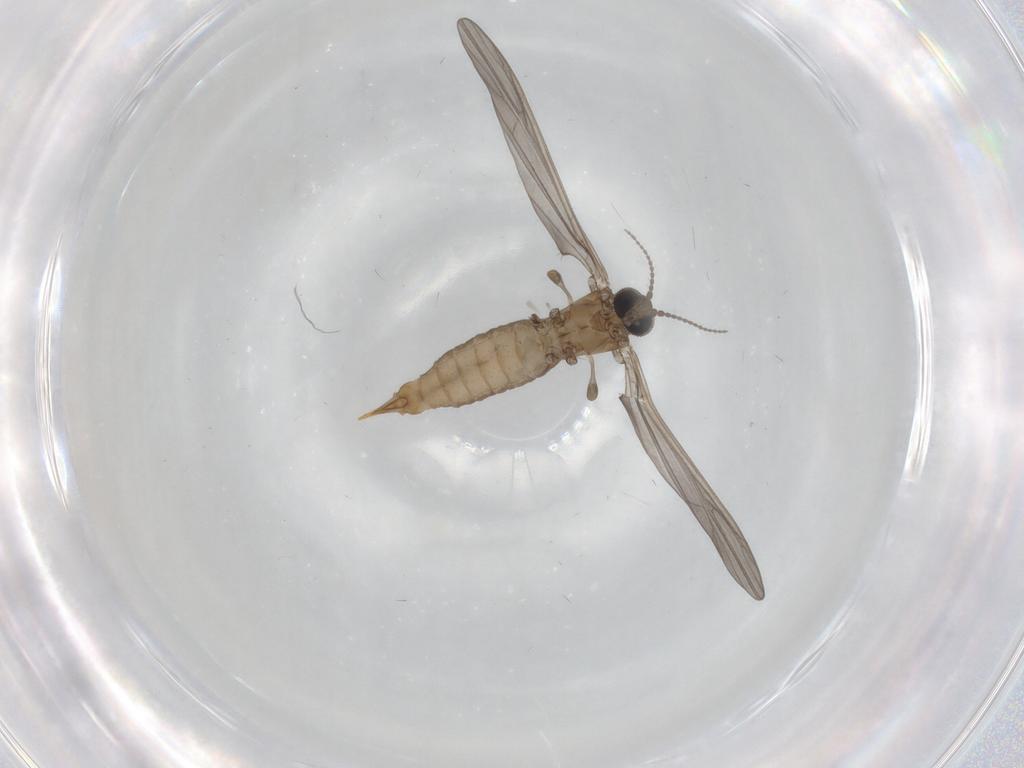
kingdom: Animalia
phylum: Arthropoda
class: Insecta
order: Diptera
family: Limoniidae
